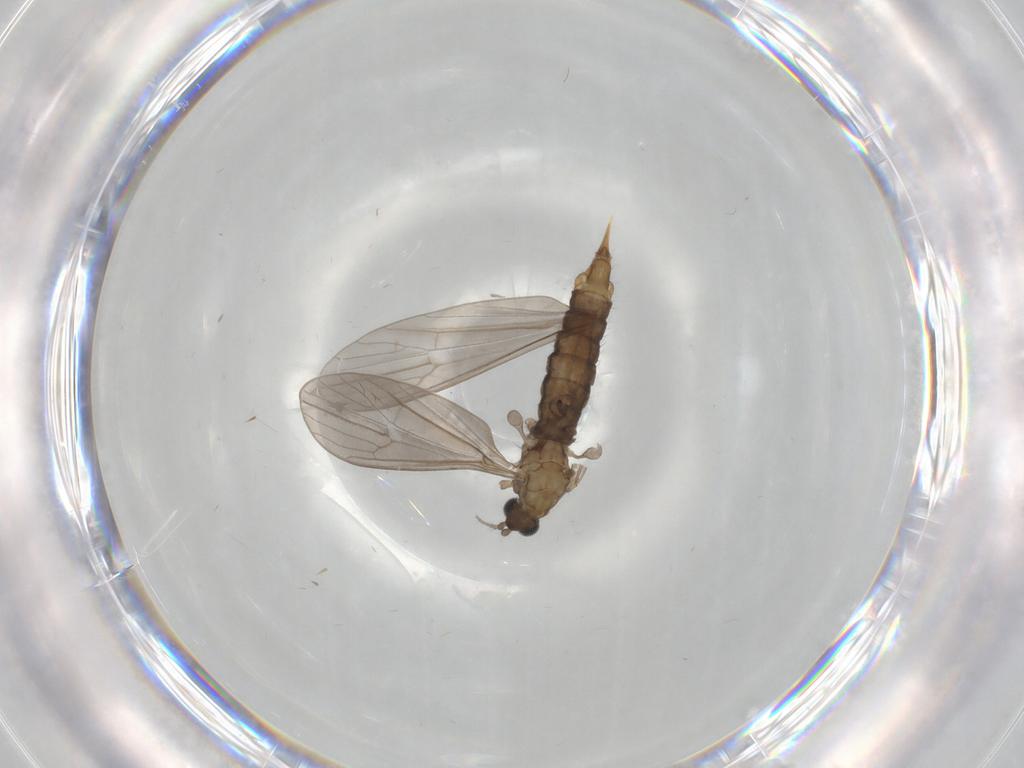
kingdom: Animalia
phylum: Arthropoda
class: Insecta
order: Diptera
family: Limoniidae
